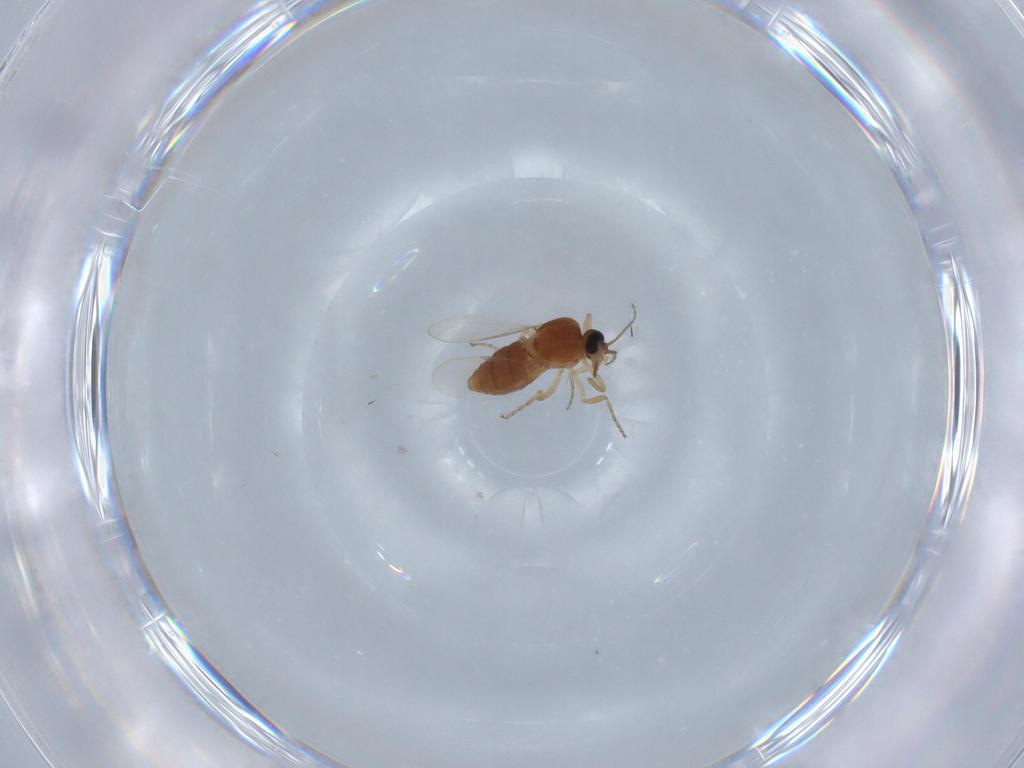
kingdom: Animalia
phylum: Arthropoda
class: Insecta
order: Diptera
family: Ceratopogonidae
